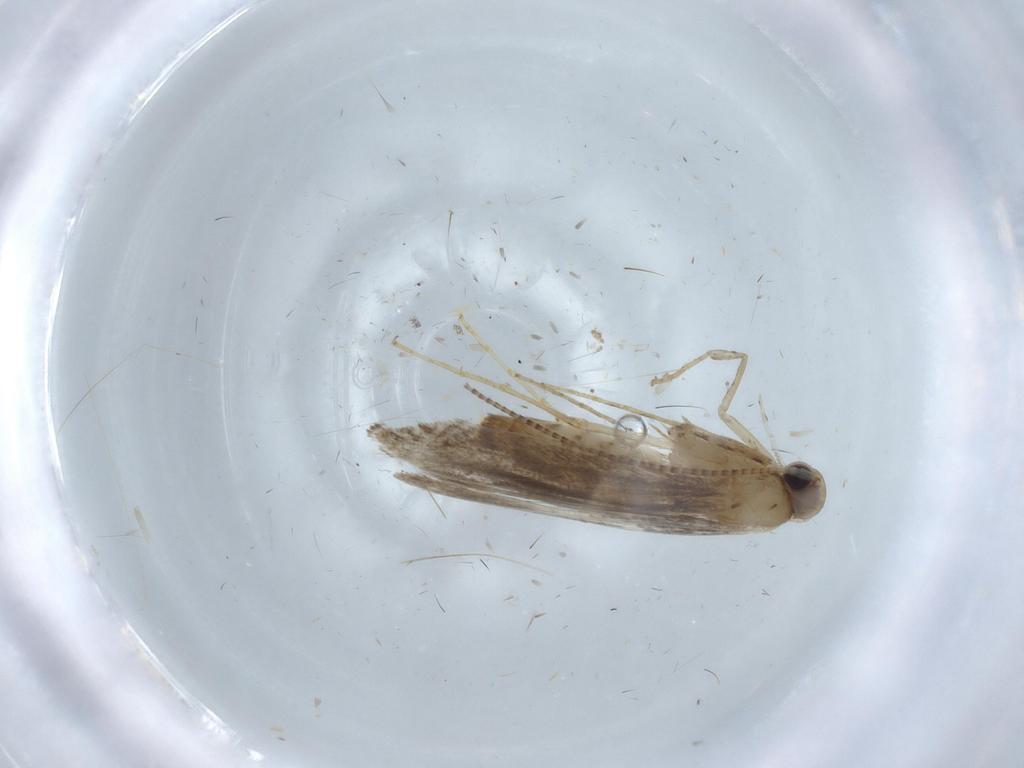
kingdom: Animalia
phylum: Arthropoda
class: Insecta
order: Lepidoptera
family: Gracillariidae
